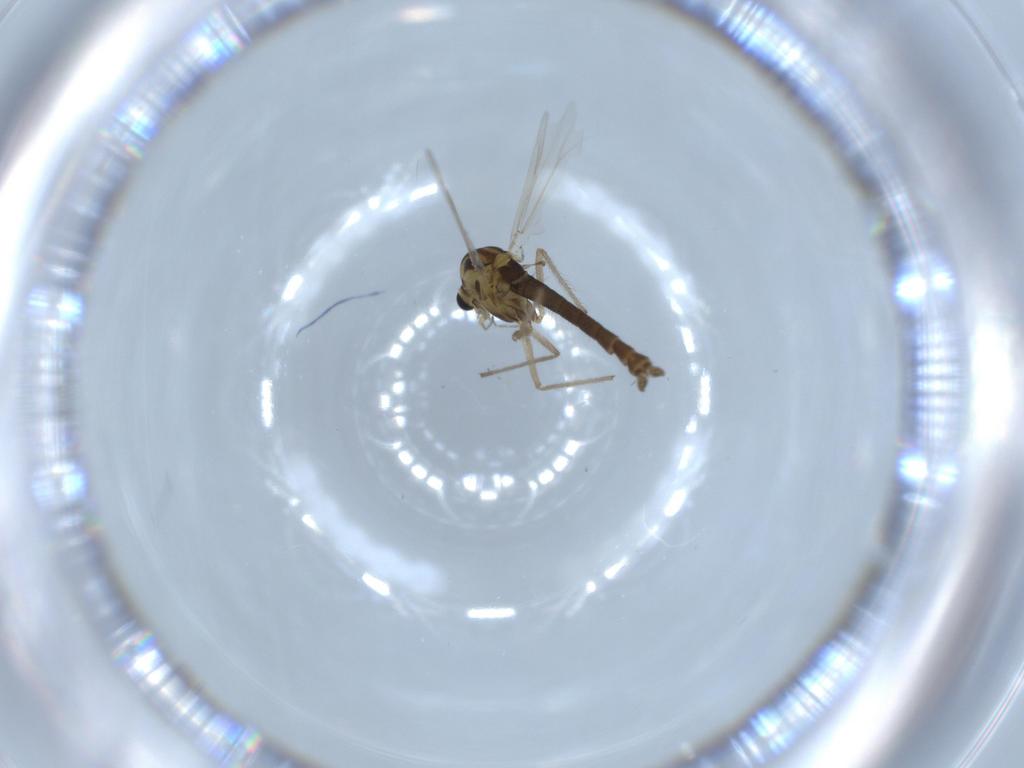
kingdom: Animalia
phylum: Arthropoda
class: Insecta
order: Diptera
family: Chironomidae
